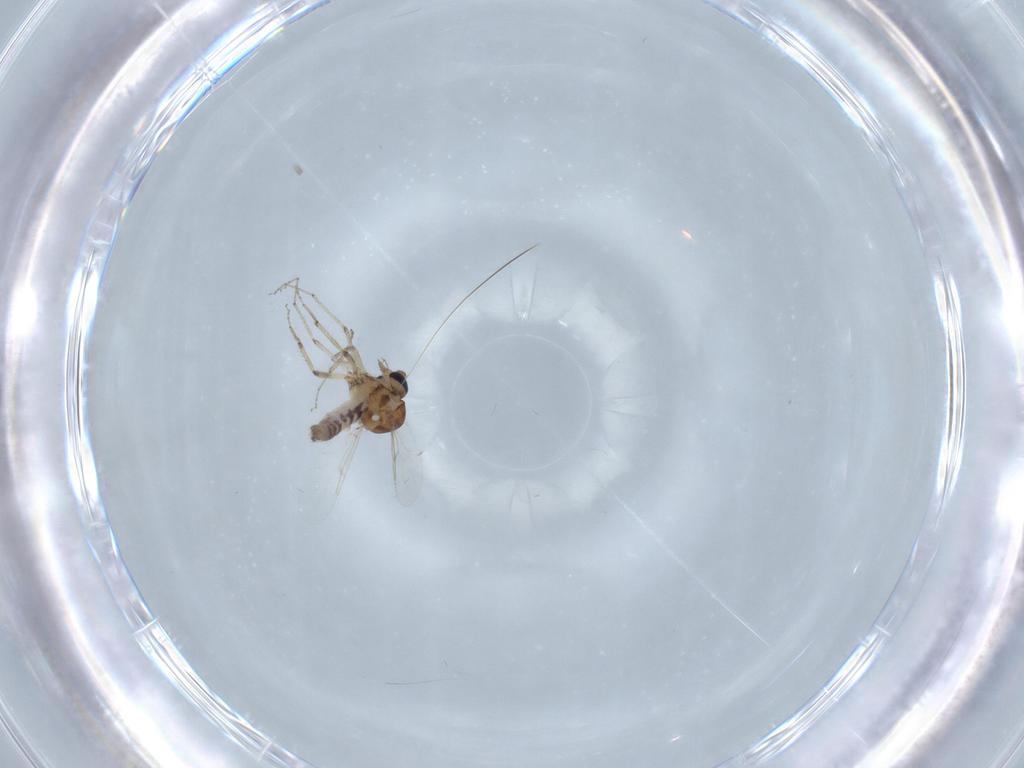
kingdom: Animalia
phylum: Arthropoda
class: Insecta
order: Diptera
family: Ceratopogonidae
